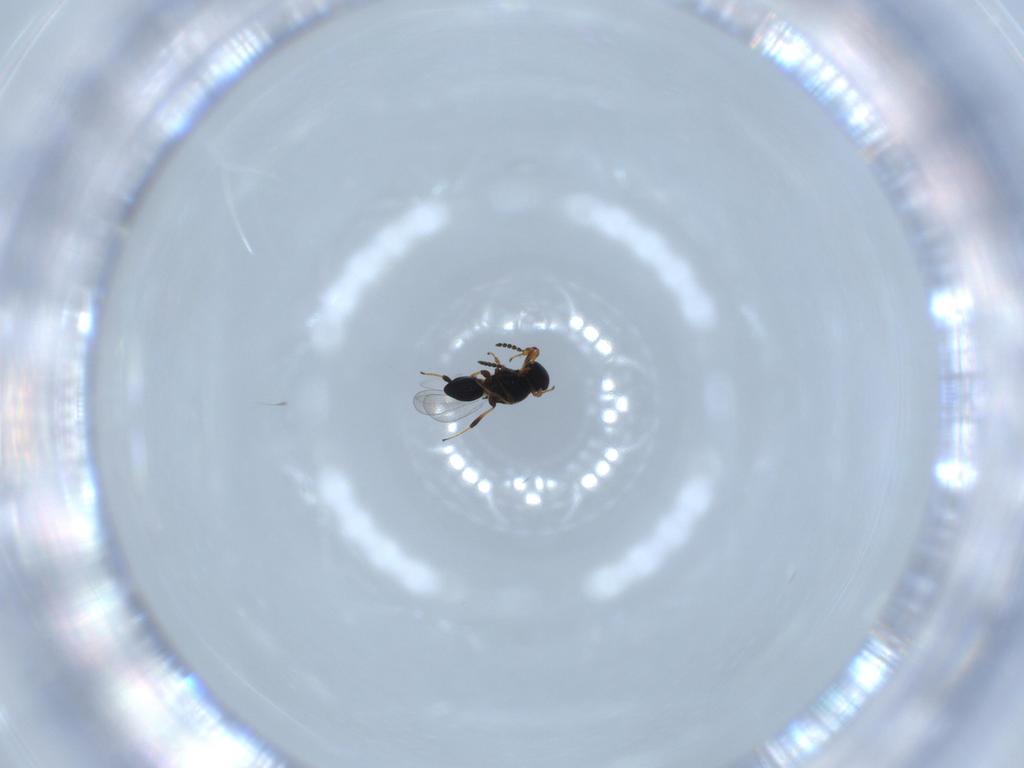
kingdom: Animalia
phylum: Arthropoda
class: Insecta
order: Hymenoptera
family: Platygastridae
